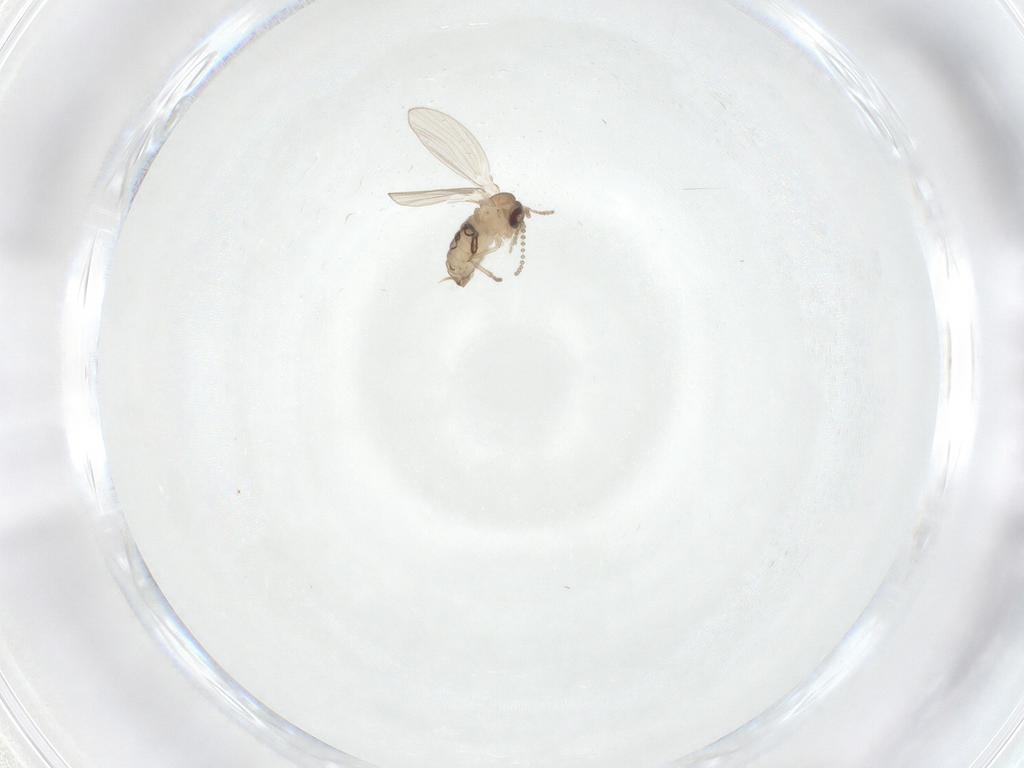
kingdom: Animalia
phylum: Arthropoda
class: Insecta
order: Diptera
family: Psychodidae
